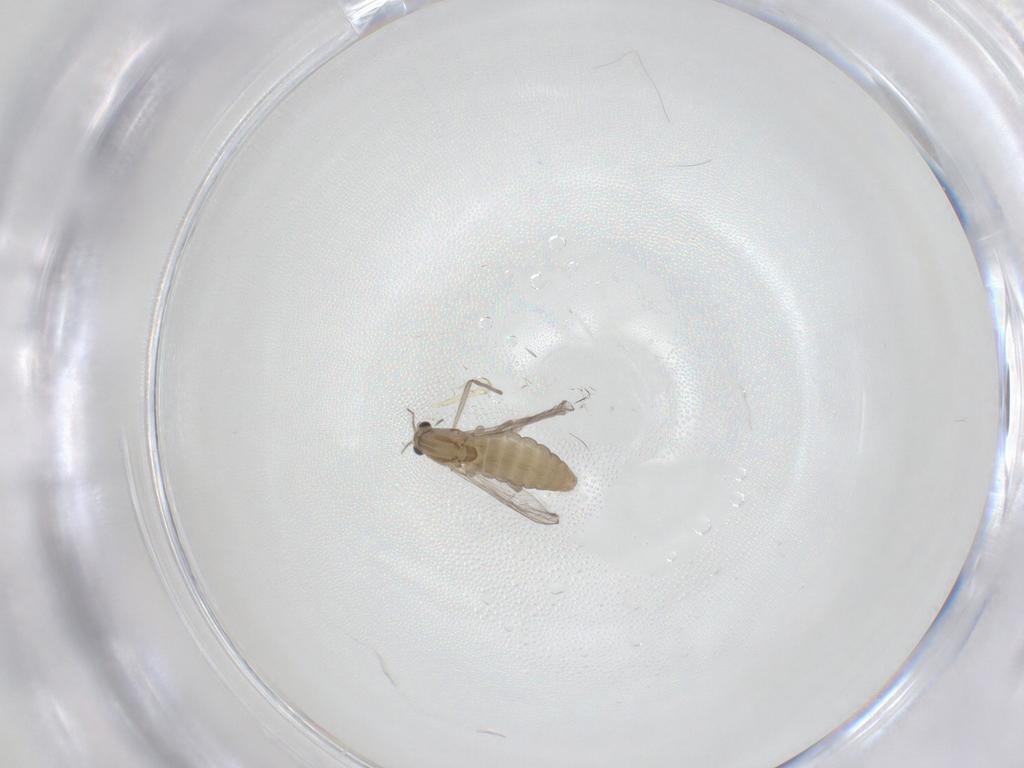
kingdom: Animalia
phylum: Arthropoda
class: Insecta
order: Diptera
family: Chironomidae
